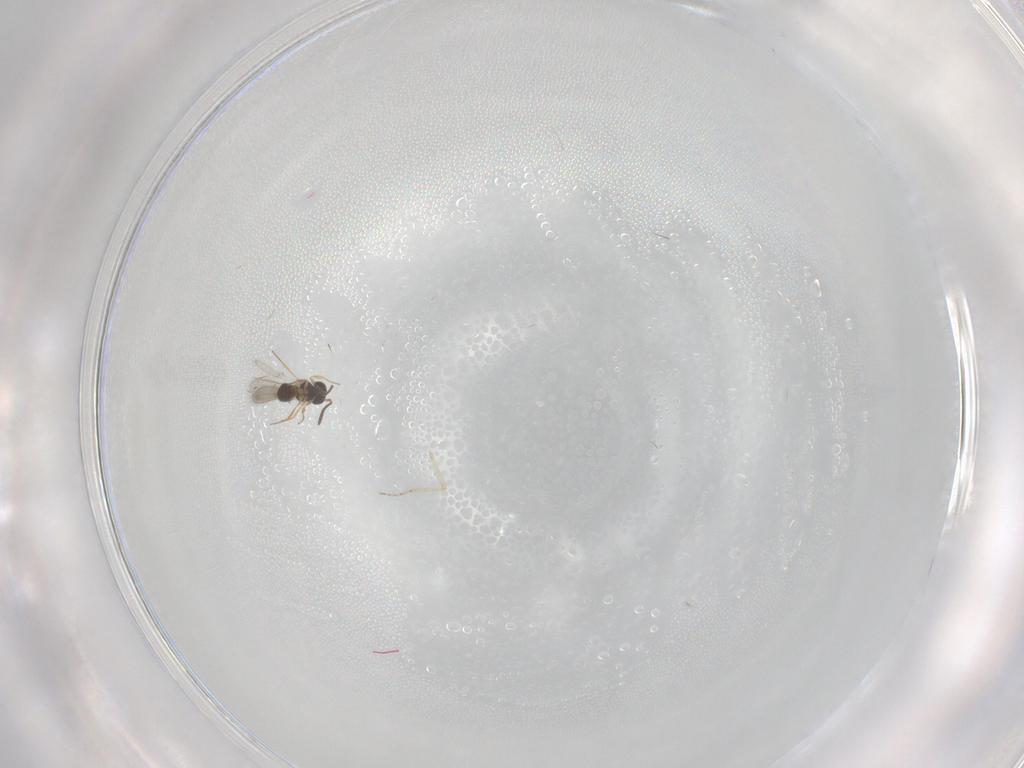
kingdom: Animalia
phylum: Arthropoda
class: Insecta
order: Hymenoptera
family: Scelionidae
